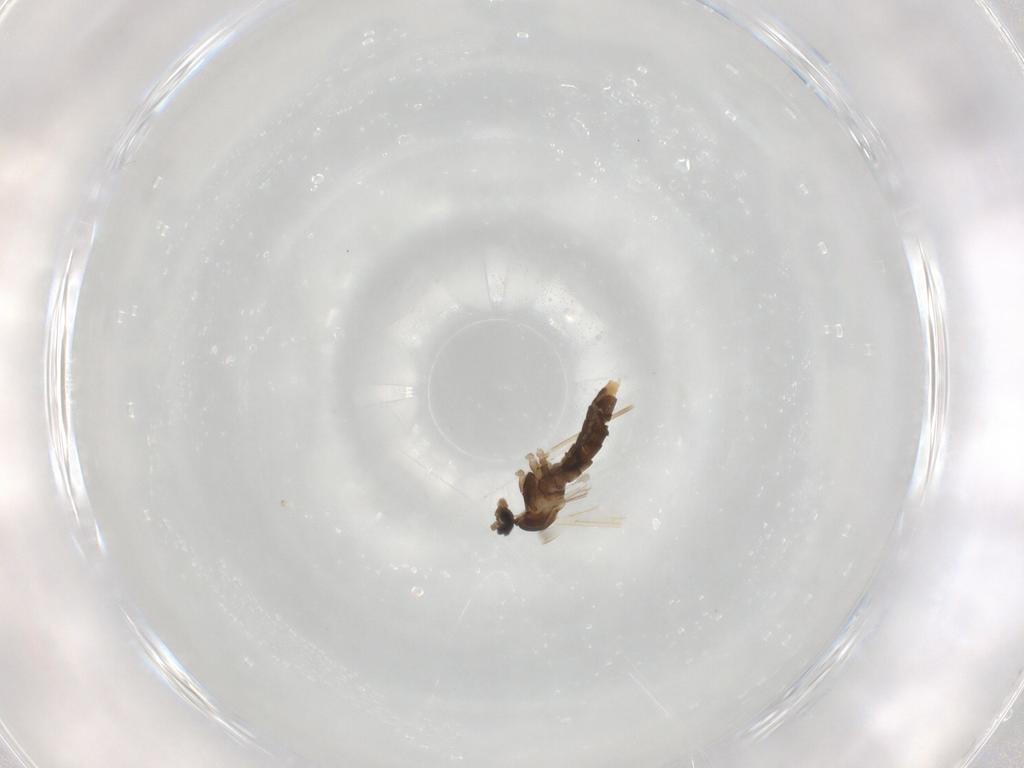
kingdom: Animalia
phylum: Arthropoda
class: Insecta
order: Diptera
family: Cecidomyiidae
